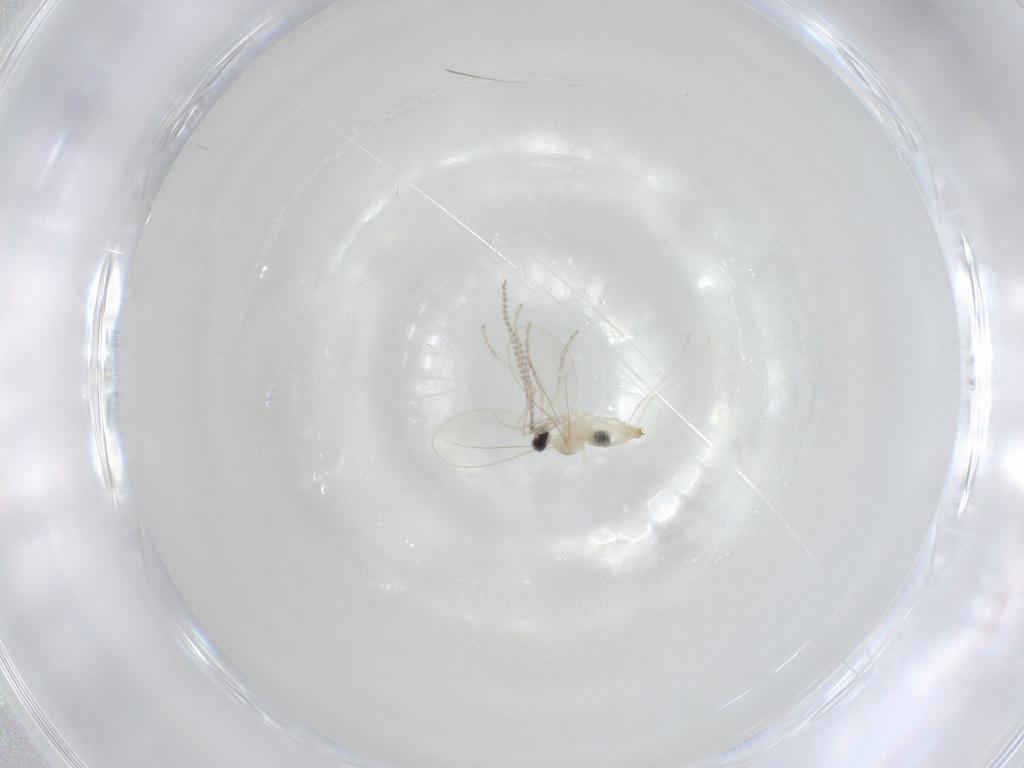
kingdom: Animalia
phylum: Arthropoda
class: Insecta
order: Diptera
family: Cecidomyiidae
